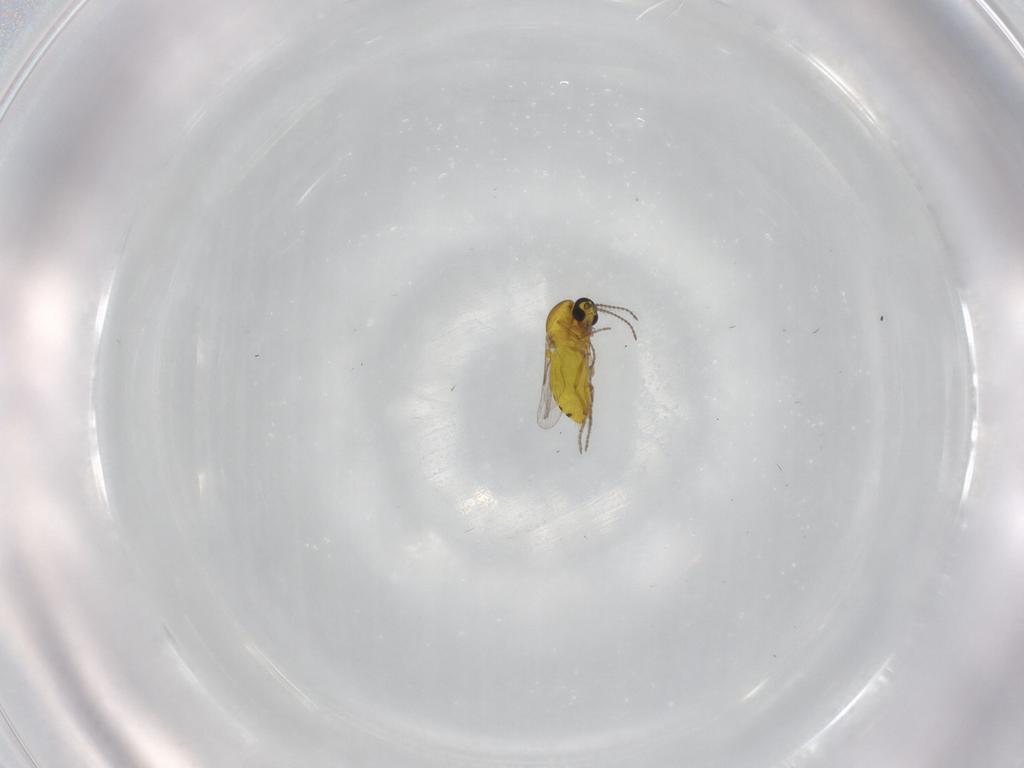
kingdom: Animalia
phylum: Arthropoda
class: Insecta
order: Diptera
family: Ceratopogonidae
